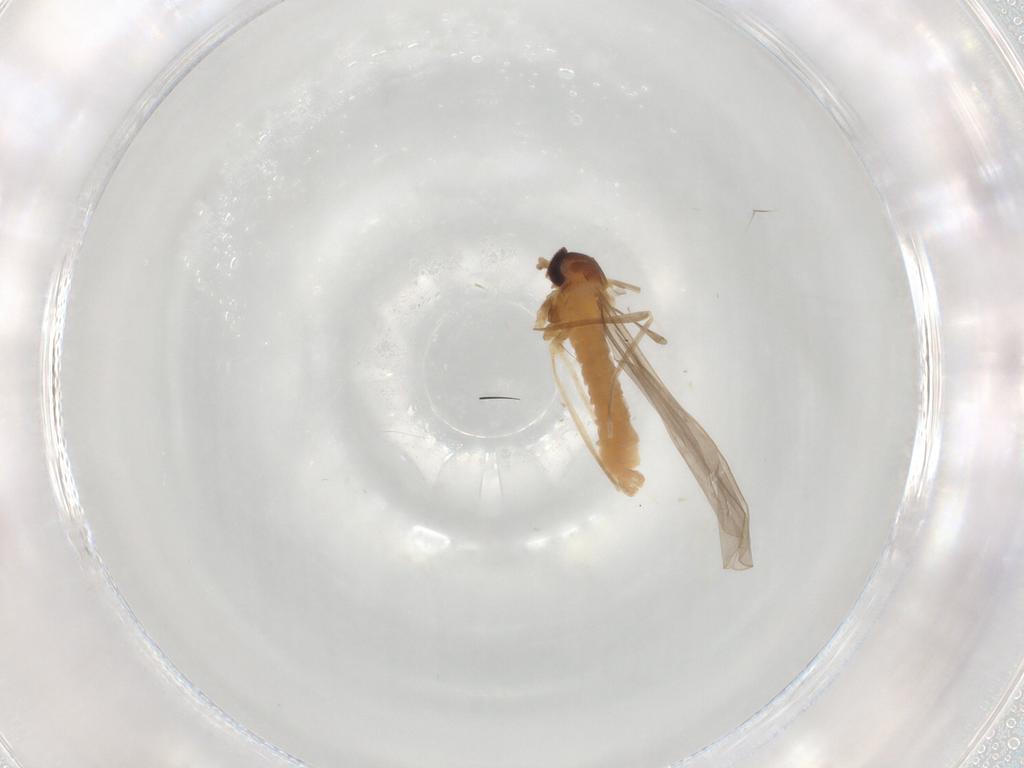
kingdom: Animalia
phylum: Arthropoda
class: Insecta
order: Diptera
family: Cecidomyiidae
